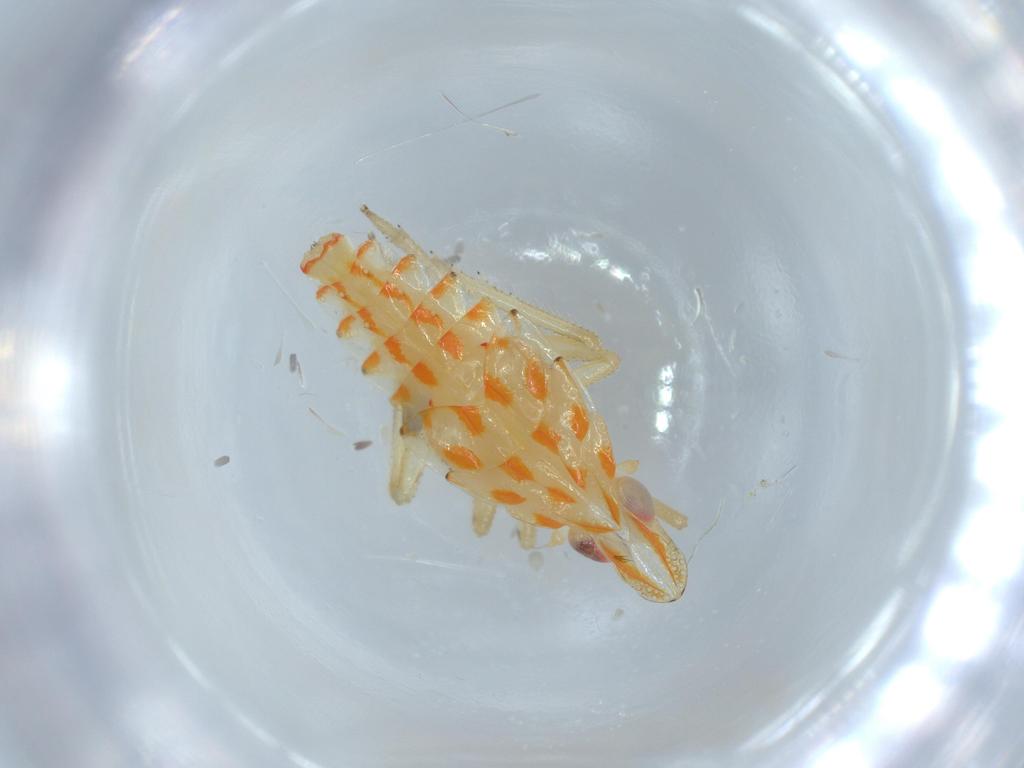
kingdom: Animalia
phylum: Arthropoda
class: Insecta
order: Hemiptera
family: Tropiduchidae
